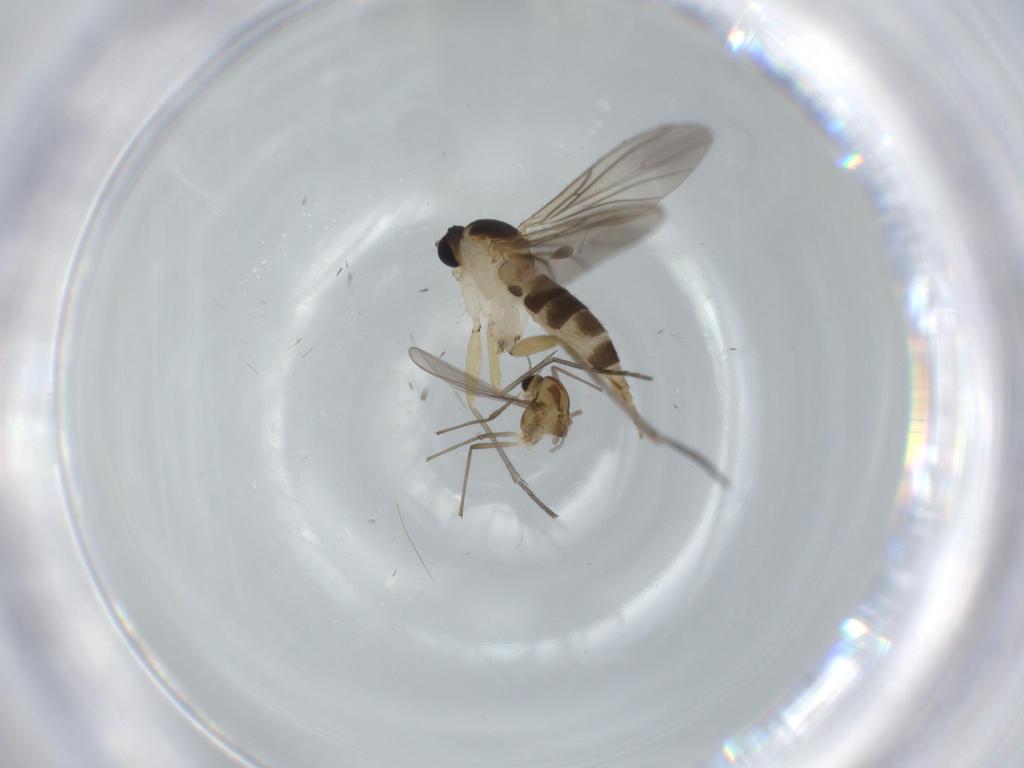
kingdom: Animalia
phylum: Arthropoda
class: Insecta
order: Diptera
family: Sciaridae
